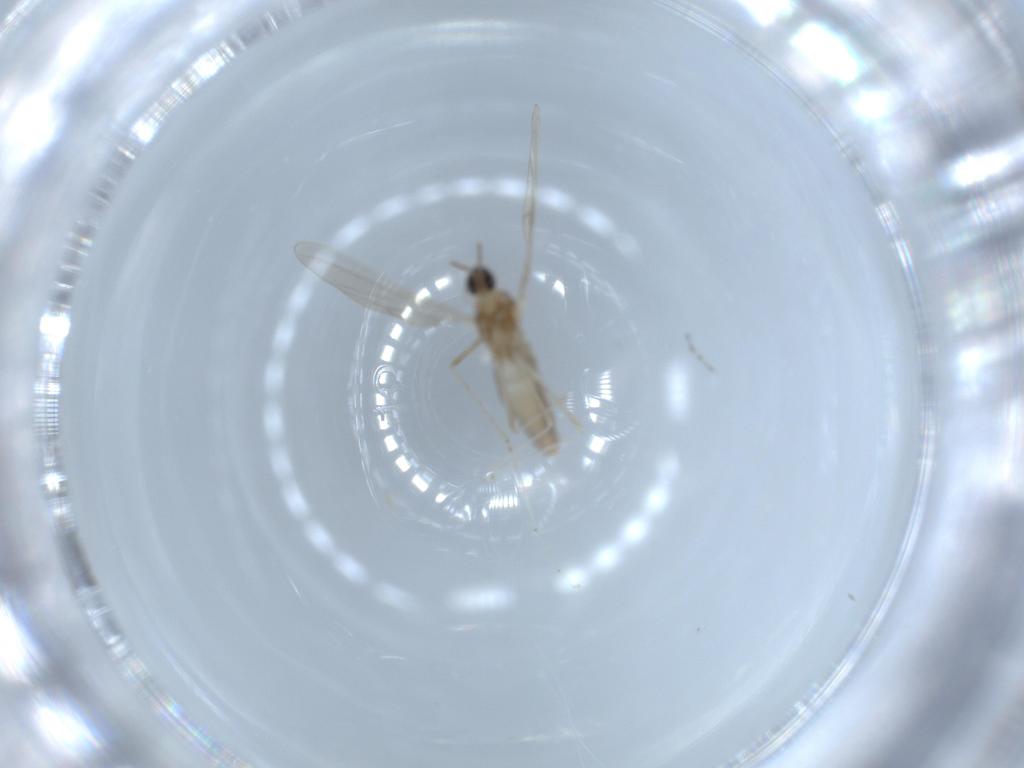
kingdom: Animalia
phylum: Arthropoda
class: Insecta
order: Diptera
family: Cecidomyiidae
